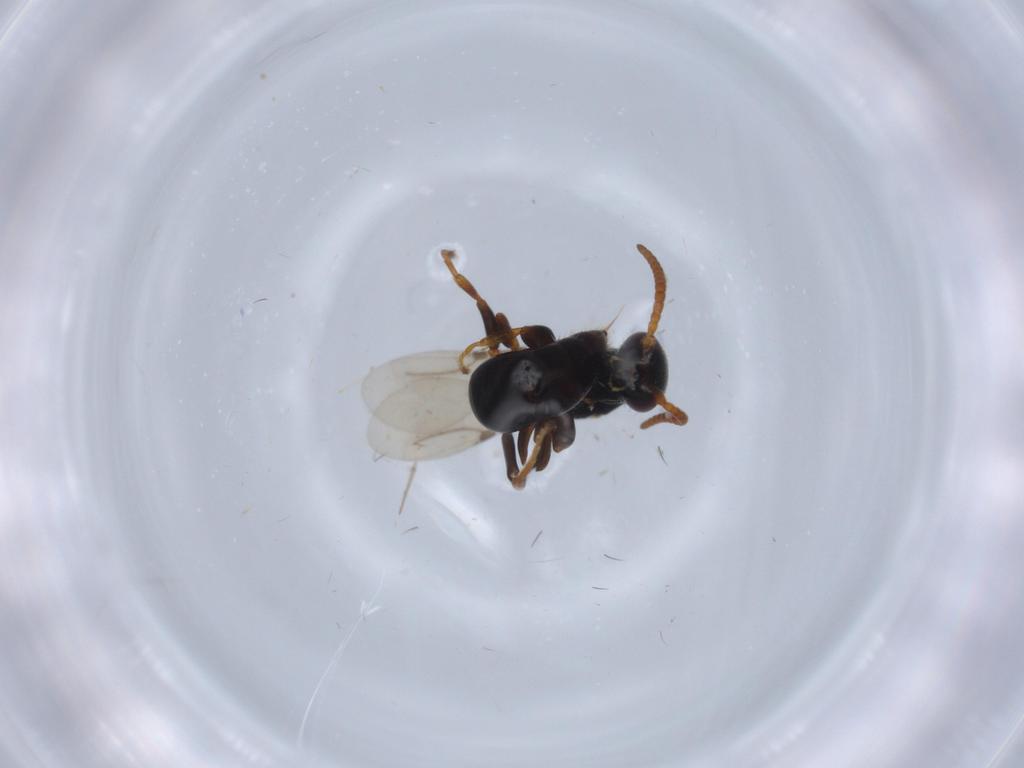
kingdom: Animalia
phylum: Arthropoda
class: Insecta
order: Hymenoptera
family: Bethylidae
